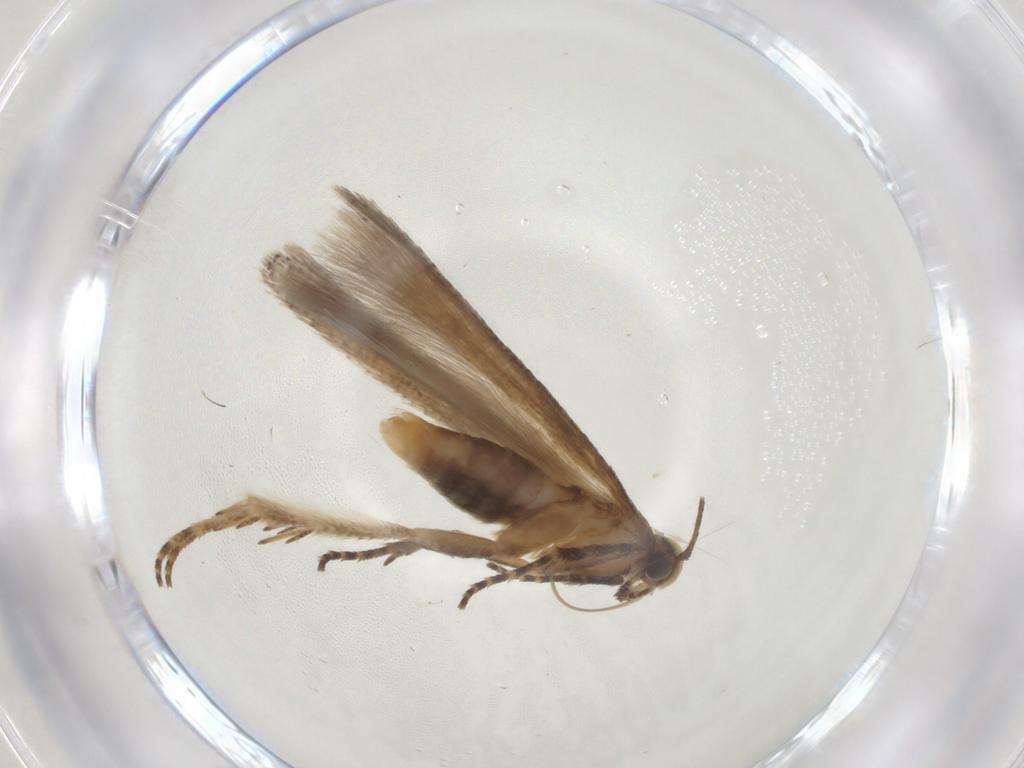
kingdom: Animalia
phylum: Arthropoda
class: Insecta
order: Lepidoptera
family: Gelechiidae
